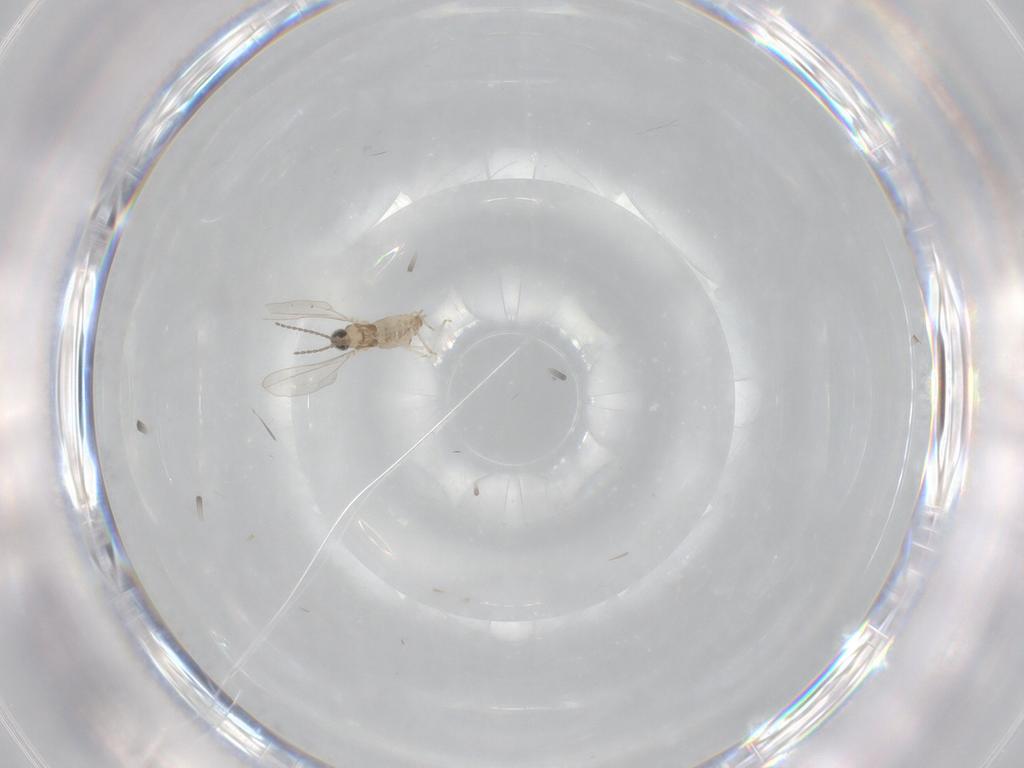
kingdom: Animalia
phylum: Arthropoda
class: Insecta
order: Diptera
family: Cecidomyiidae
